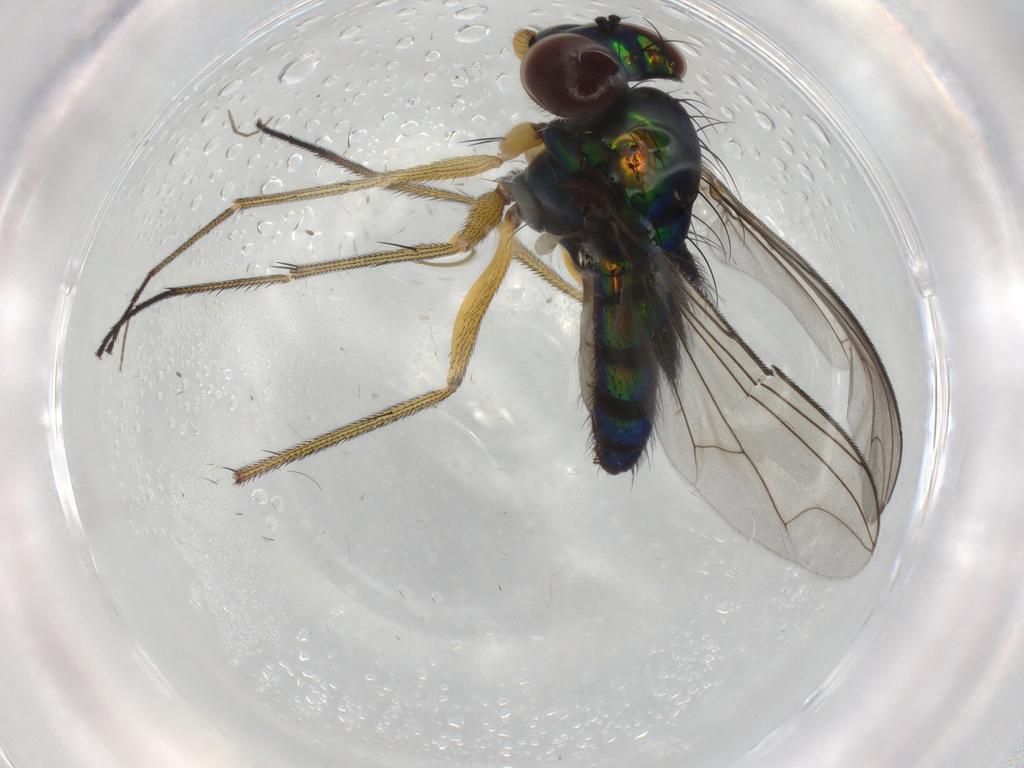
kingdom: Animalia
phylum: Arthropoda
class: Insecta
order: Diptera
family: Dolichopodidae
